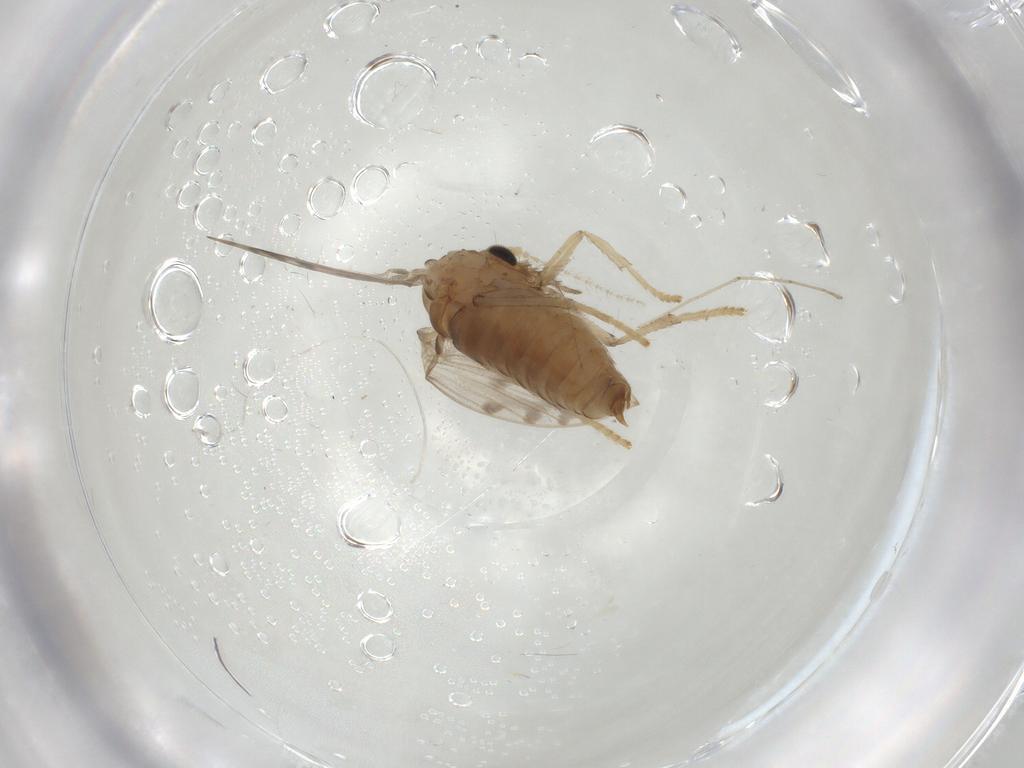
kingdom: Animalia
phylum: Arthropoda
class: Insecta
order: Diptera
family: Psychodidae
